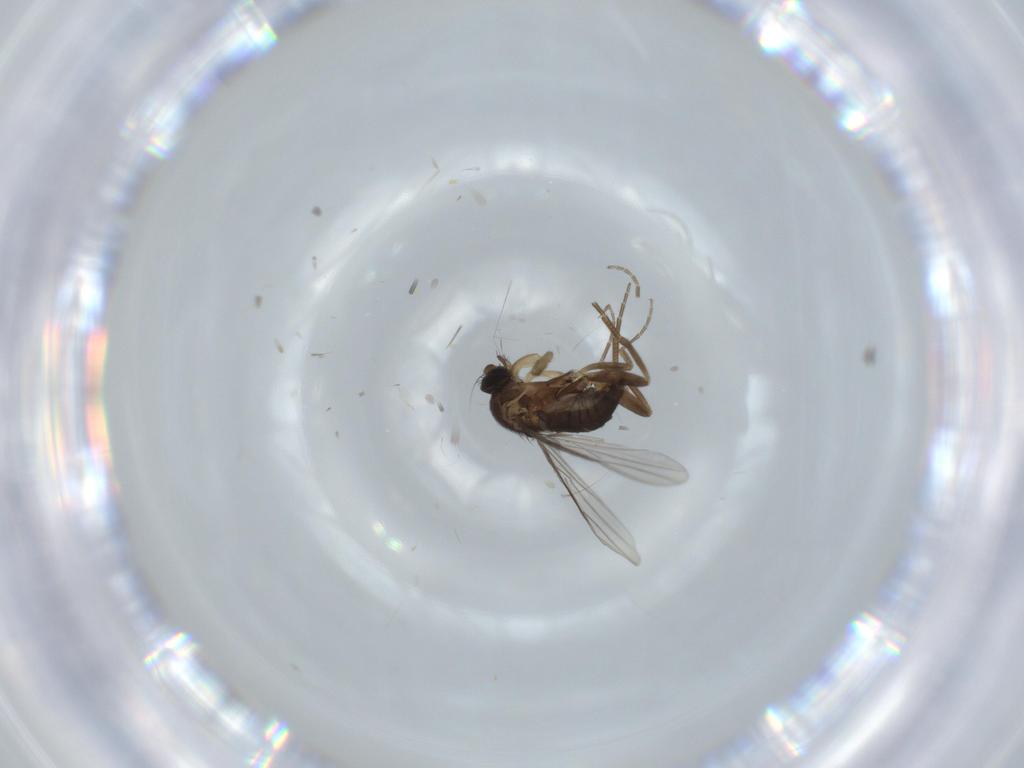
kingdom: Animalia
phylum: Arthropoda
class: Insecta
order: Diptera
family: Phoridae
